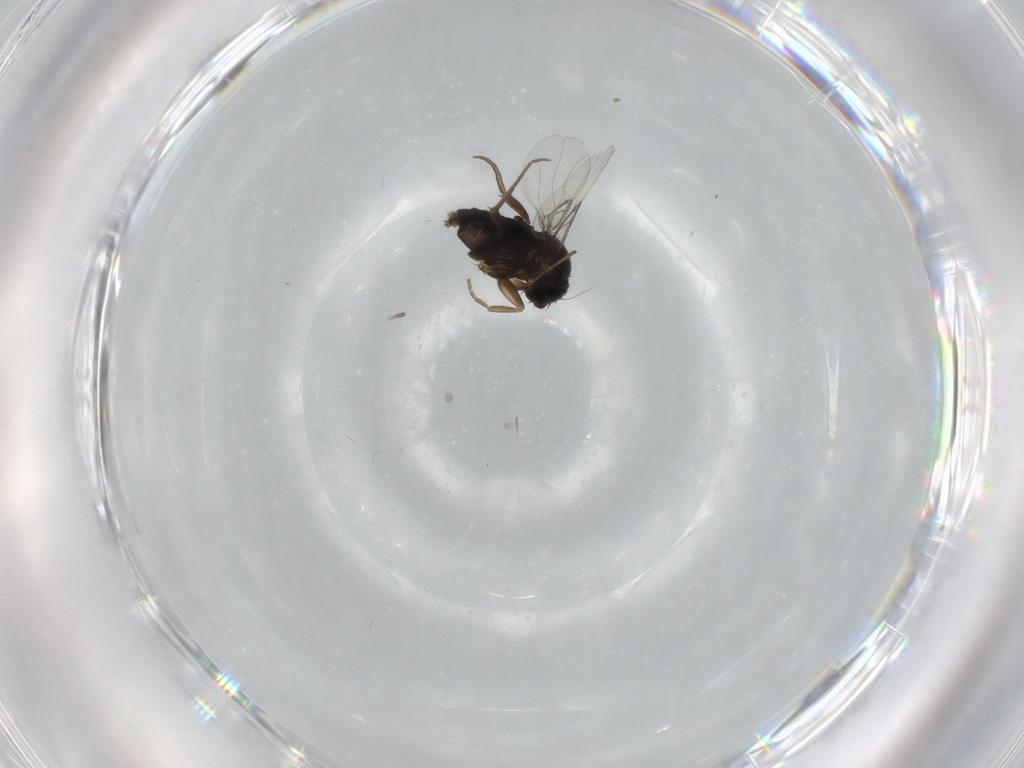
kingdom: Animalia
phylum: Arthropoda
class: Insecta
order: Diptera
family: Phoridae
